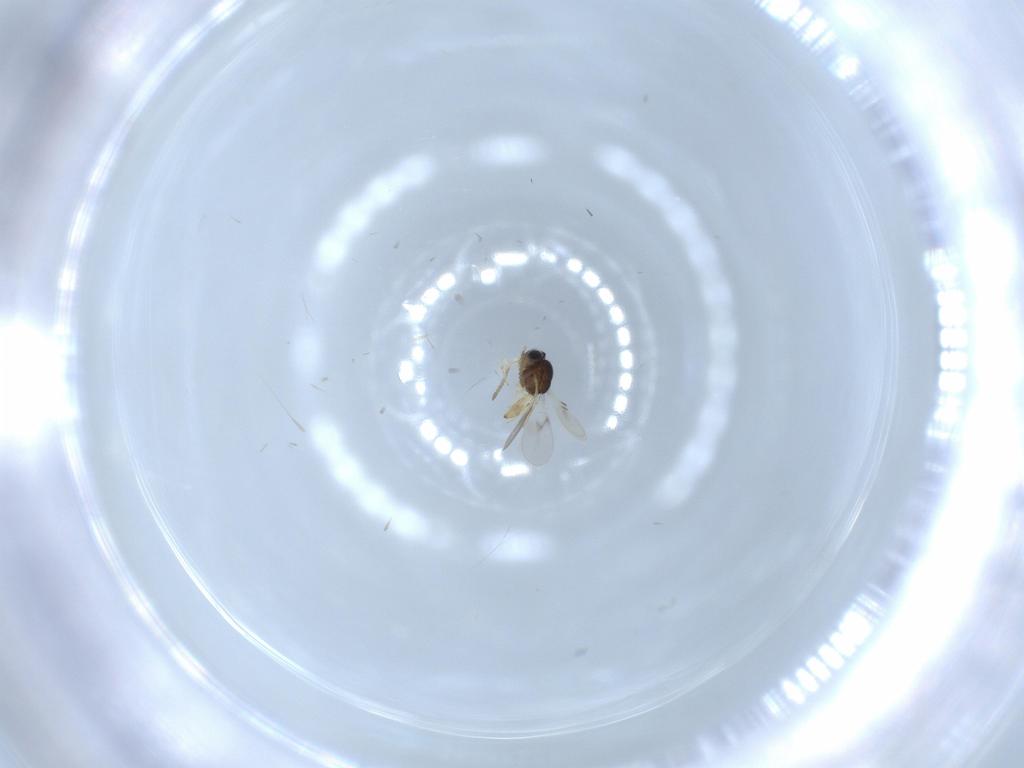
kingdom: Animalia
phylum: Arthropoda
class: Insecta
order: Hymenoptera
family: Scelionidae
